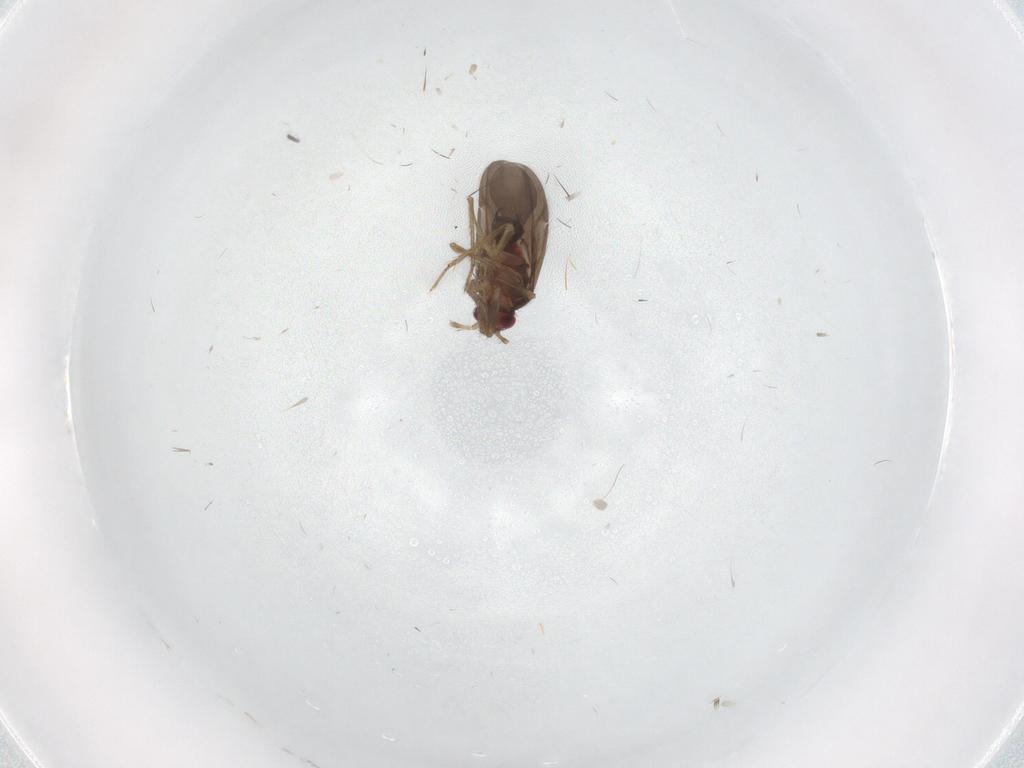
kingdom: Animalia
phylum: Arthropoda
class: Insecta
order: Hemiptera
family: Ceratocombidae
